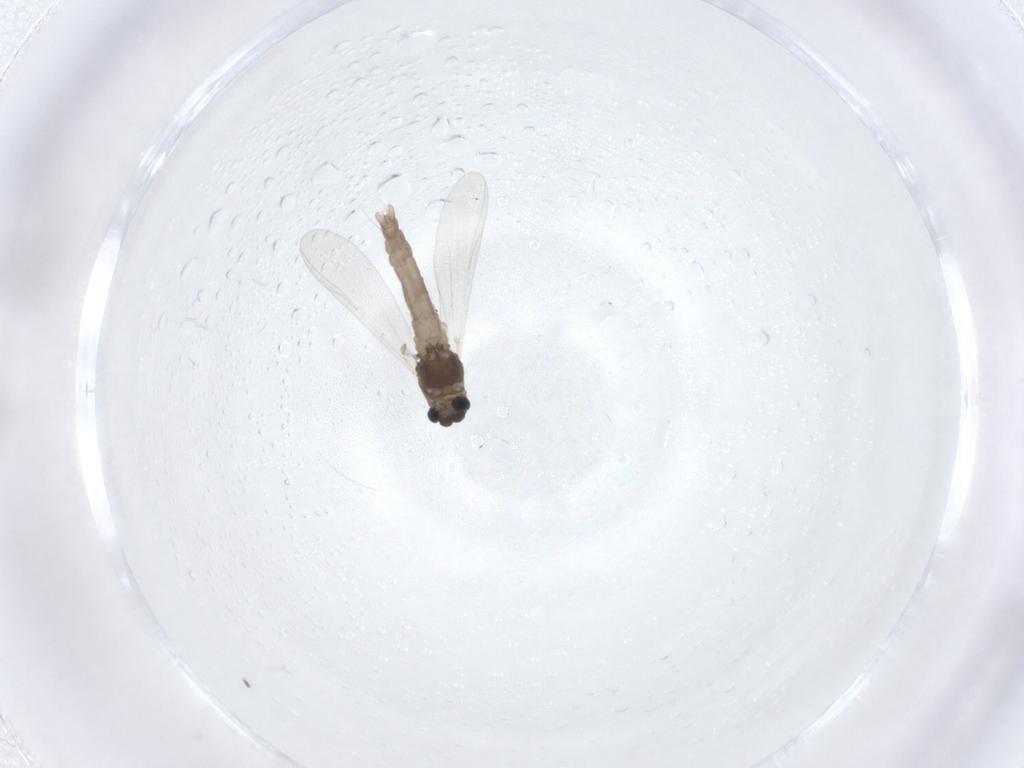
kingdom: Animalia
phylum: Arthropoda
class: Insecta
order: Diptera
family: Chironomidae
